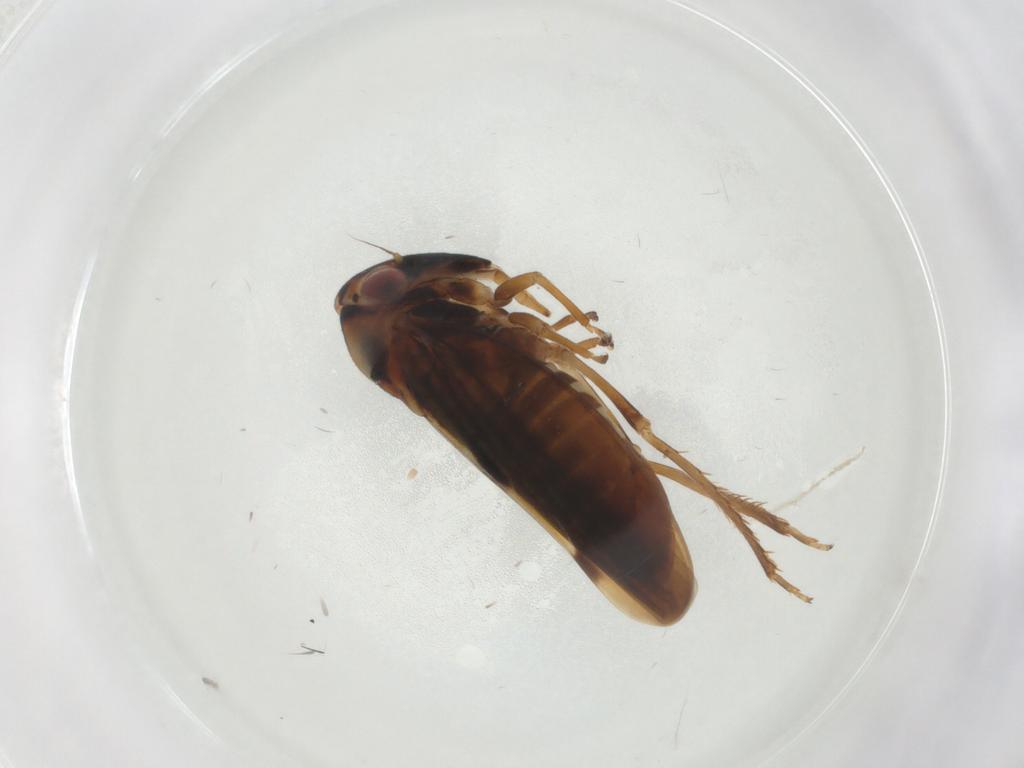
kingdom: Animalia
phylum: Arthropoda
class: Insecta
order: Hemiptera
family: Cicadellidae
